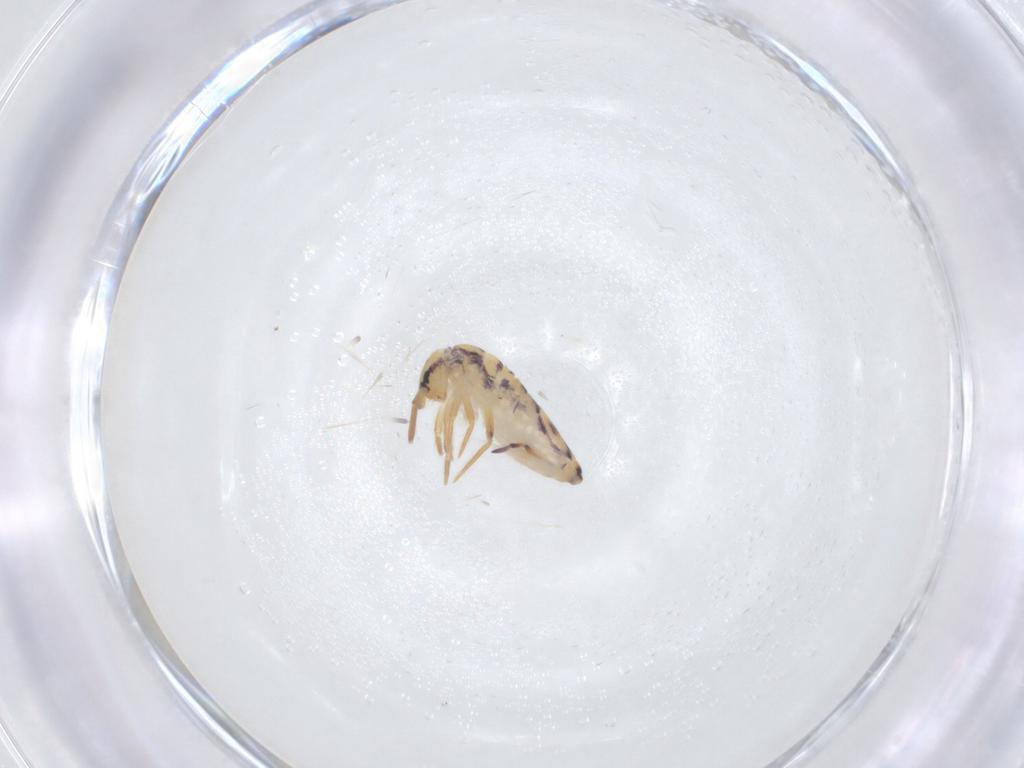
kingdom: Animalia
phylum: Arthropoda
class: Collembola
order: Entomobryomorpha
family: Entomobryidae
